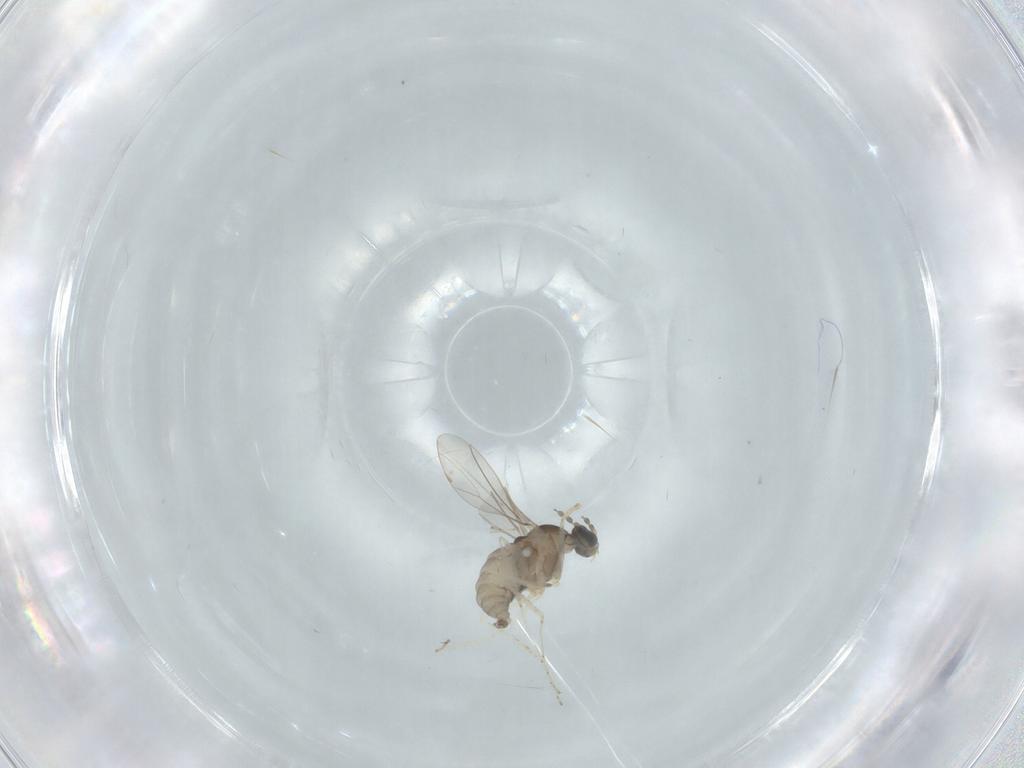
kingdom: Animalia
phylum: Arthropoda
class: Insecta
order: Diptera
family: Cecidomyiidae
